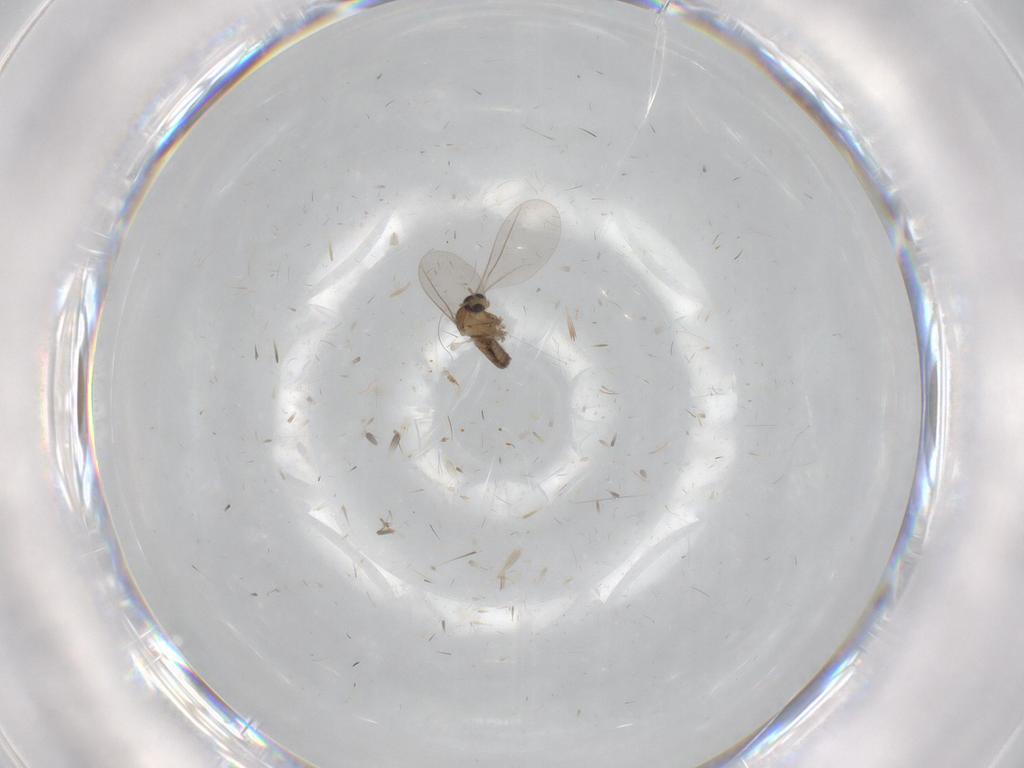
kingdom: Animalia
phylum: Arthropoda
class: Insecta
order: Diptera
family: Cecidomyiidae
